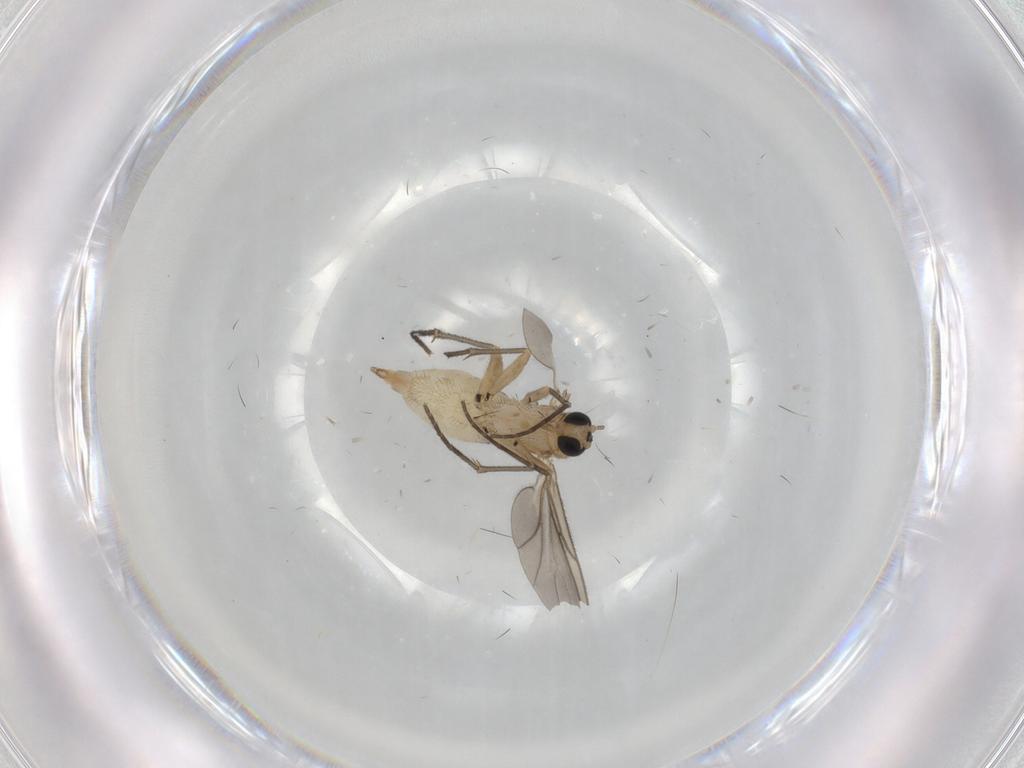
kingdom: Animalia
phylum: Arthropoda
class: Insecta
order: Diptera
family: Sciaridae
